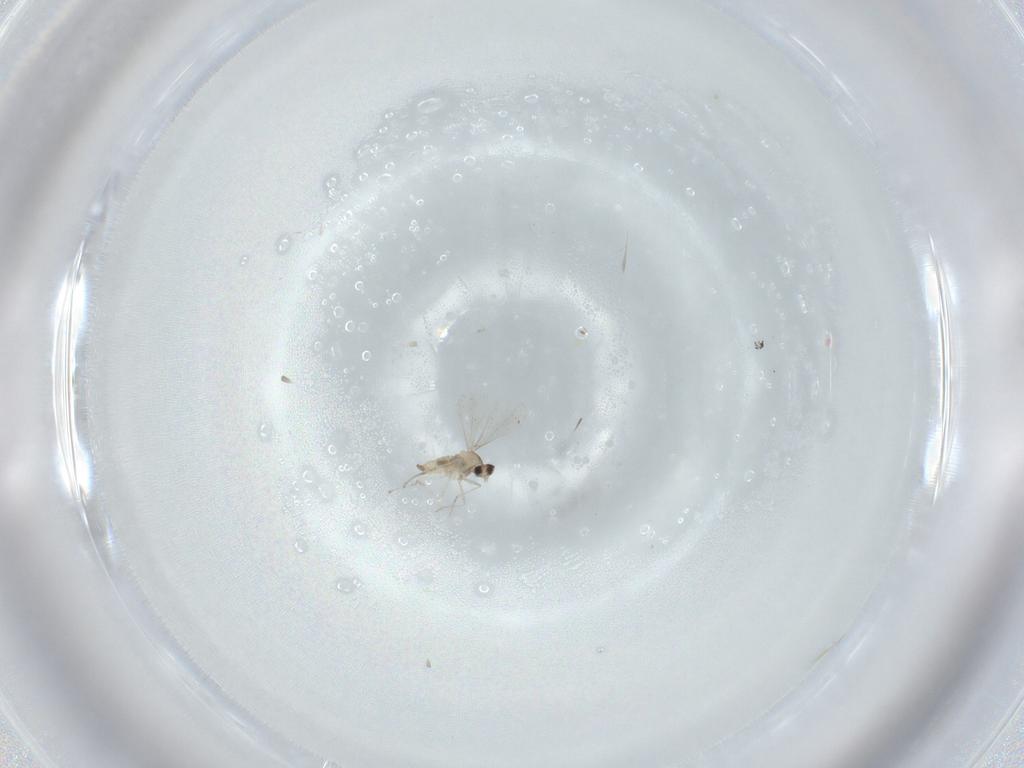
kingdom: Animalia
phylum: Arthropoda
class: Insecta
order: Diptera
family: Cecidomyiidae
